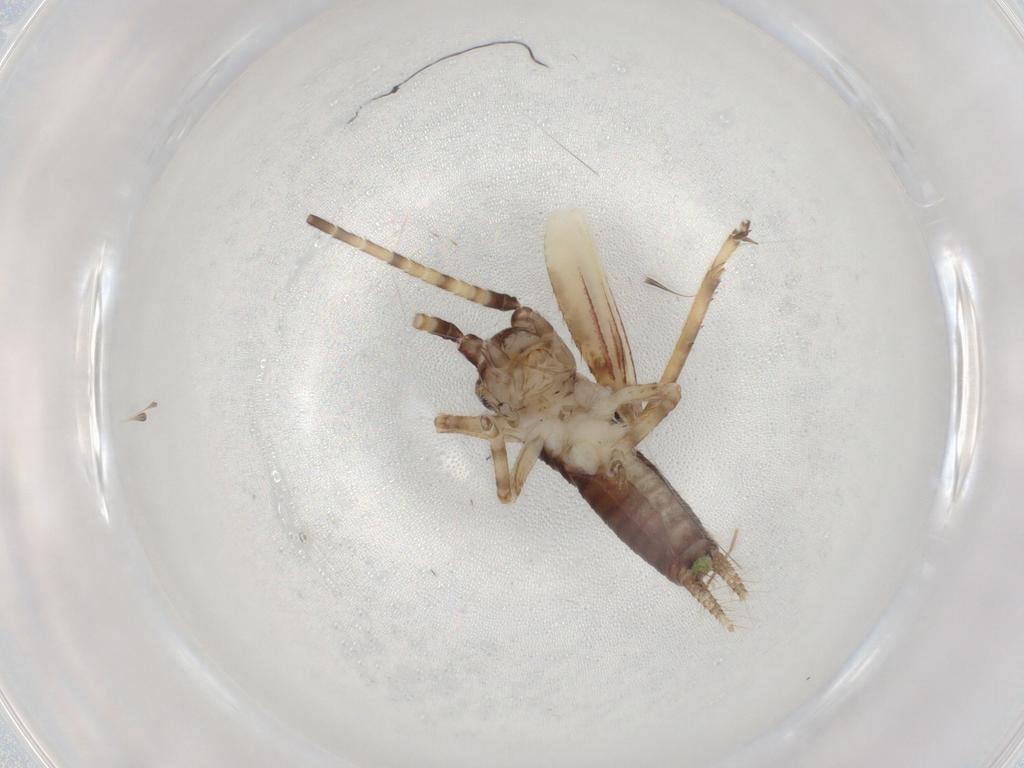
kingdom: Animalia
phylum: Arthropoda
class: Insecta
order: Orthoptera
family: Gryllidae
